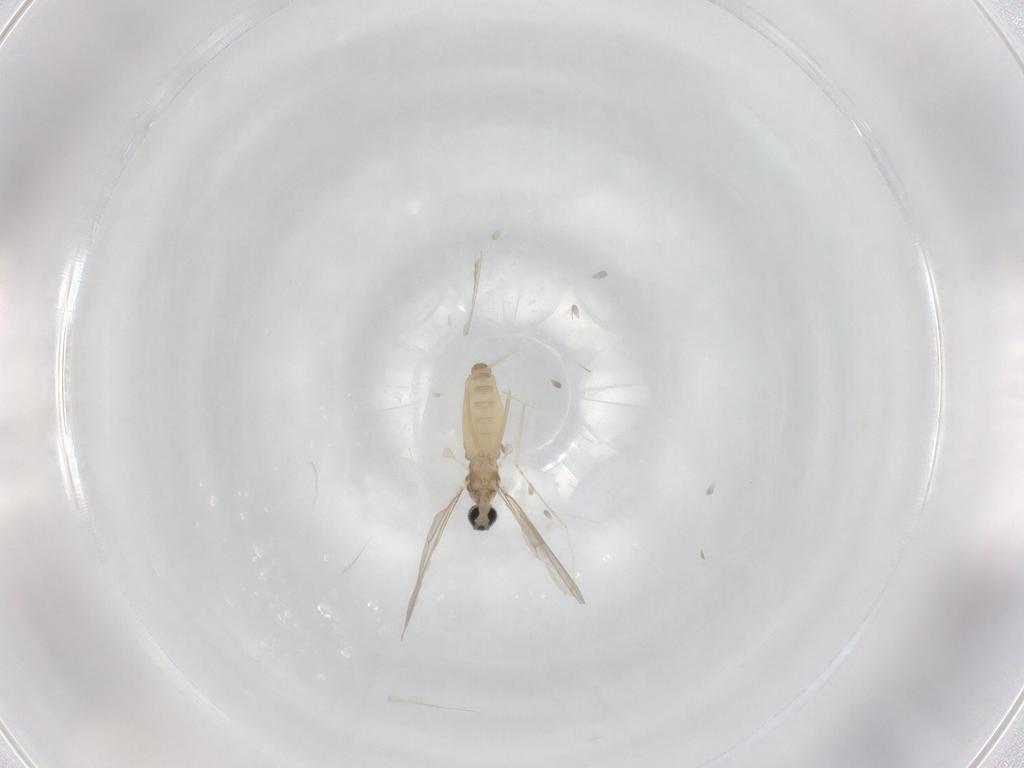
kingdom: Animalia
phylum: Arthropoda
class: Insecta
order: Diptera
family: Cecidomyiidae
